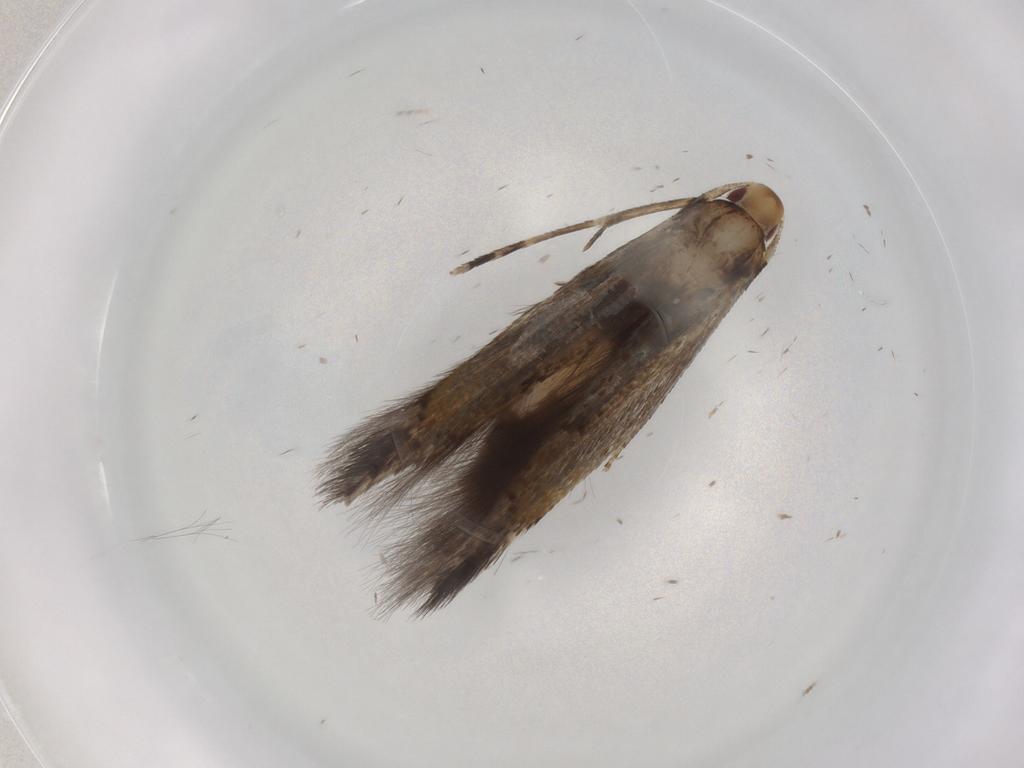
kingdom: Animalia
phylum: Arthropoda
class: Insecta
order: Lepidoptera
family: Cosmopterigidae
